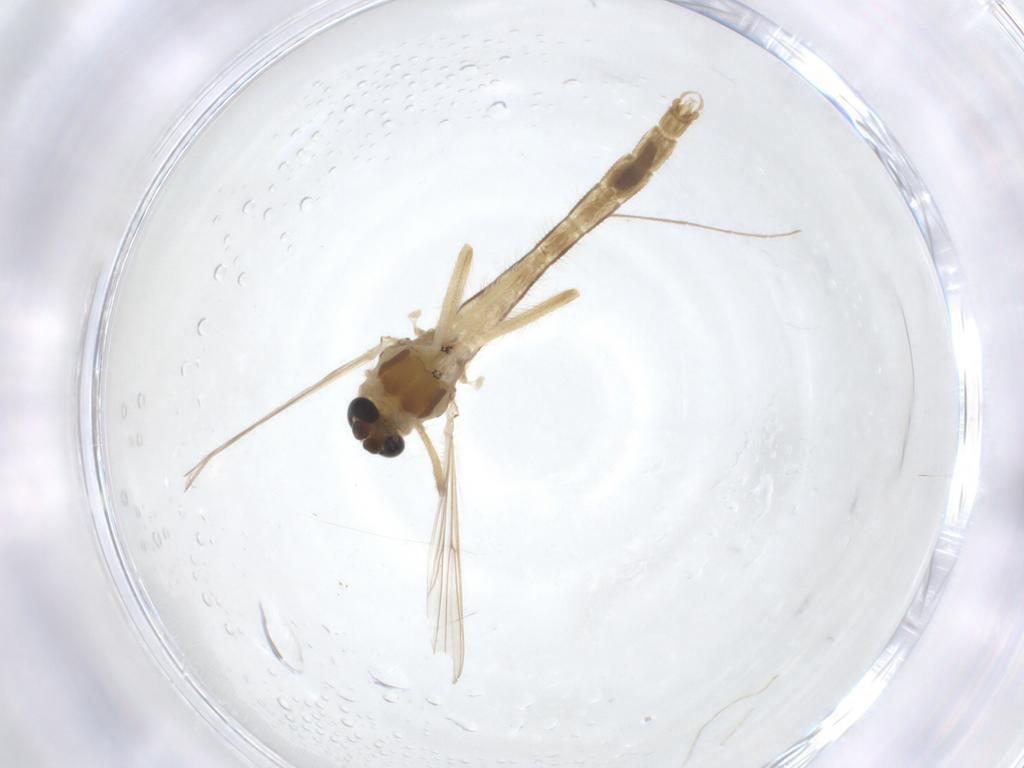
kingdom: Animalia
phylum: Arthropoda
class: Insecta
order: Diptera
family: Chironomidae
